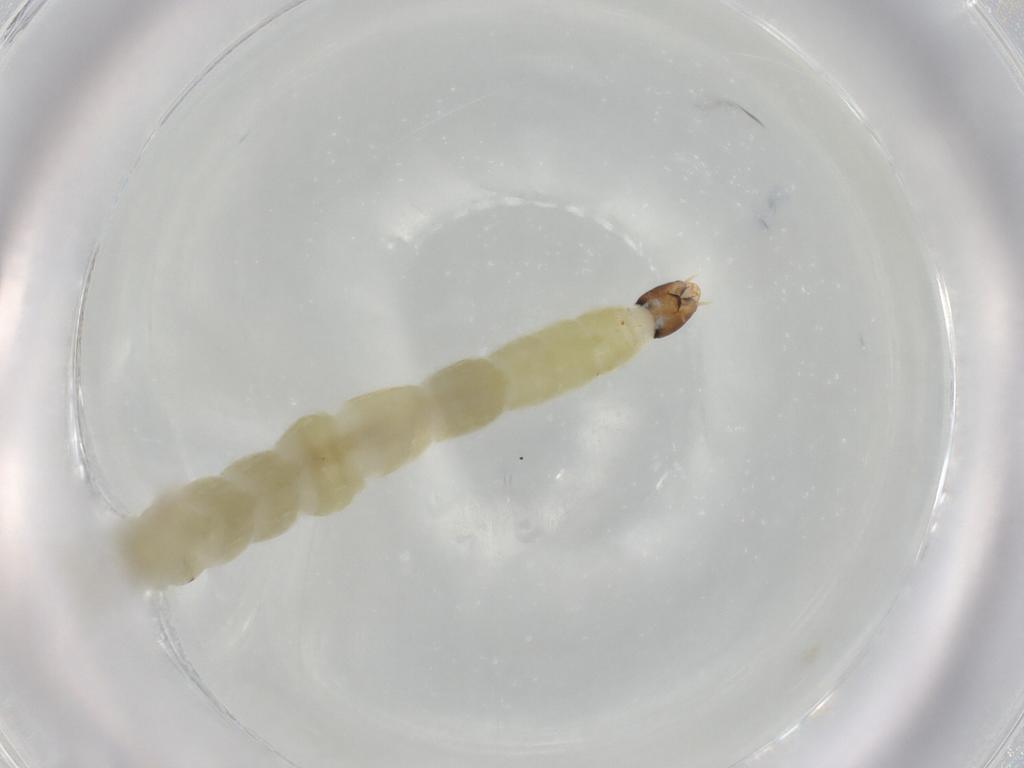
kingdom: Animalia
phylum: Arthropoda
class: Insecta
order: Diptera
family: Chironomidae
